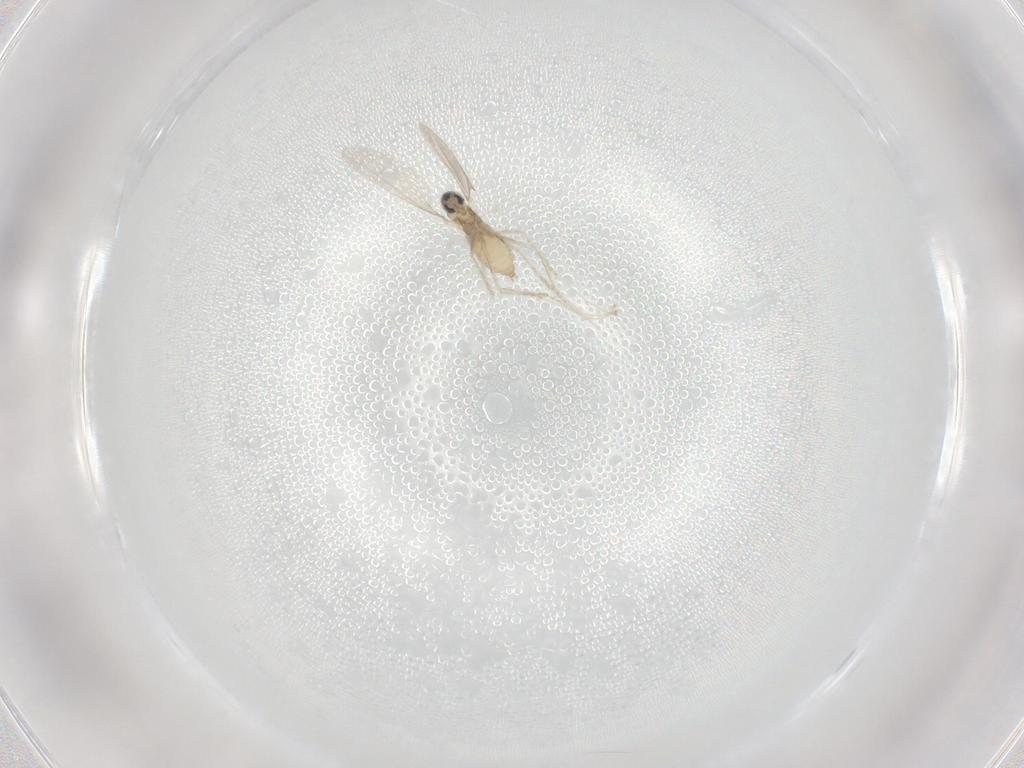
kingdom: Animalia
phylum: Arthropoda
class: Insecta
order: Diptera
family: Lauxaniidae
